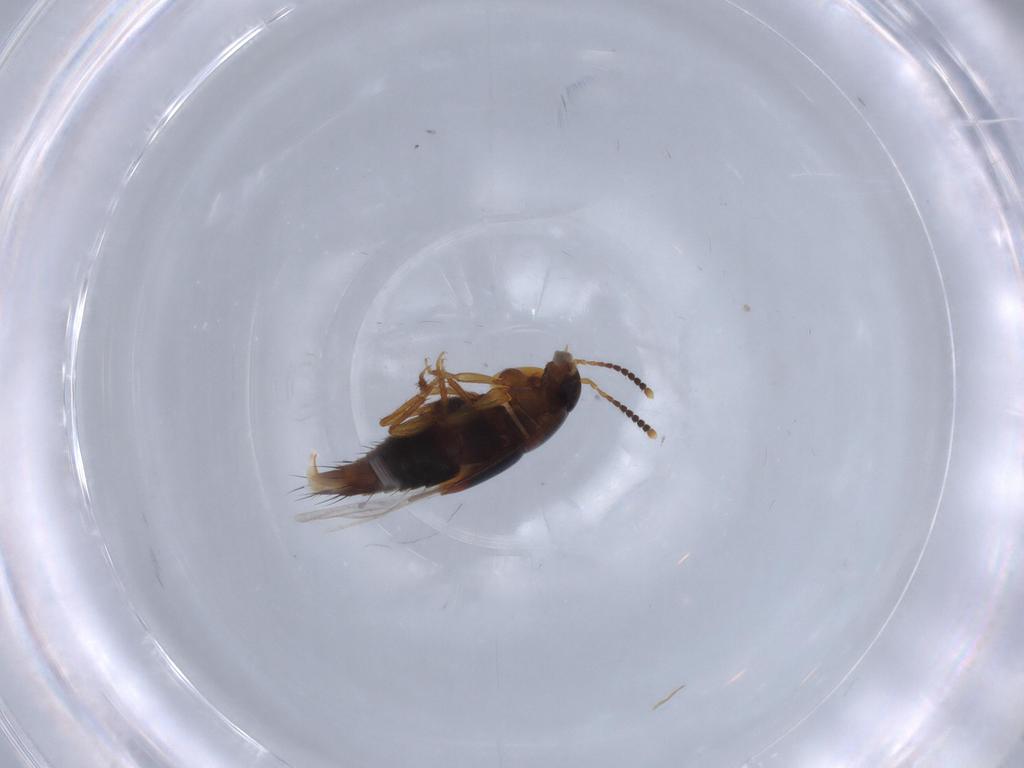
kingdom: Animalia
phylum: Arthropoda
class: Insecta
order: Coleoptera
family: Staphylinidae
